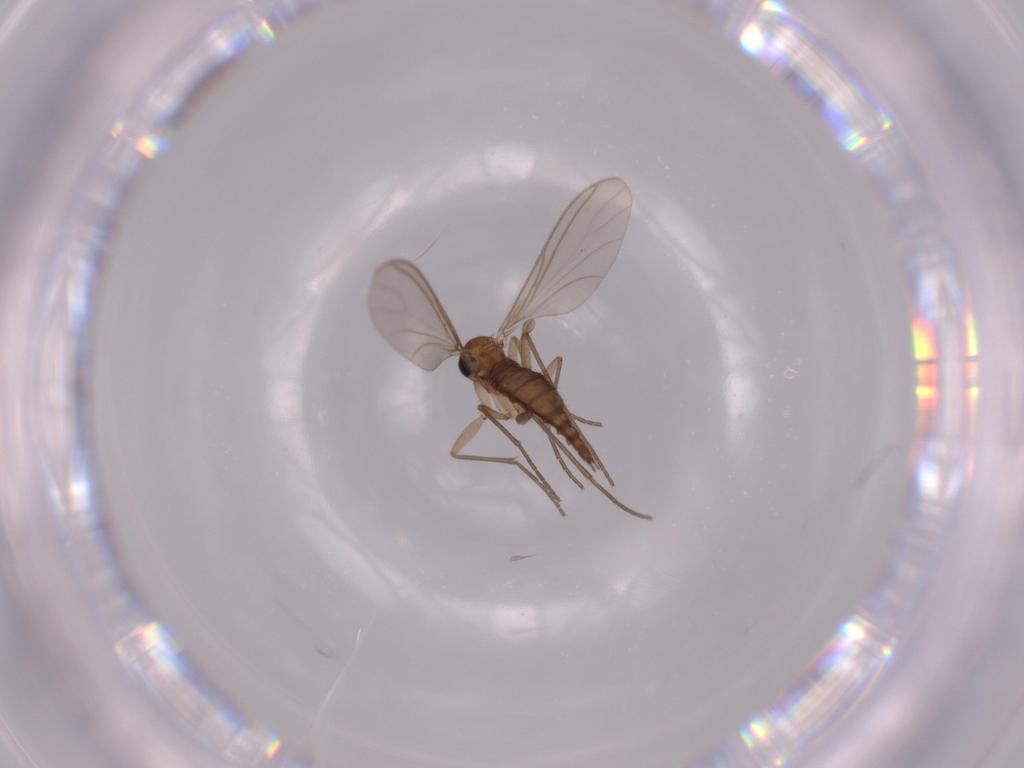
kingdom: Animalia
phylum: Arthropoda
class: Insecta
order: Diptera
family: Sciaridae
